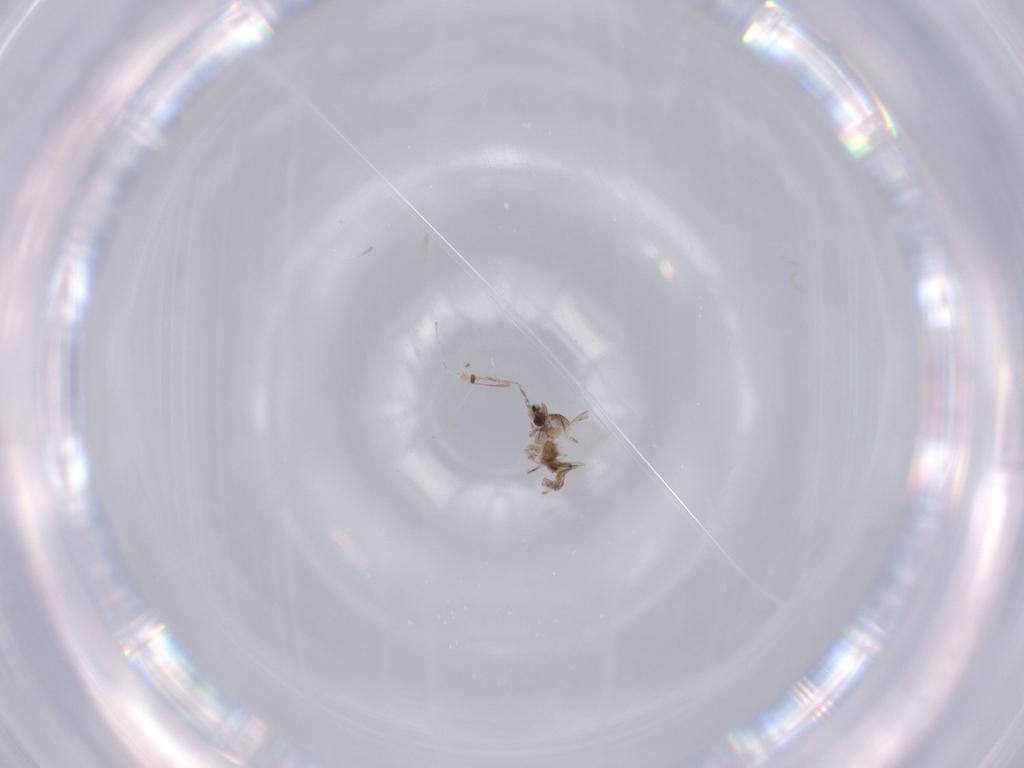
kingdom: Animalia
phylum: Arthropoda
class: Insecta
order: Diptera
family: Cecidomyiidae
